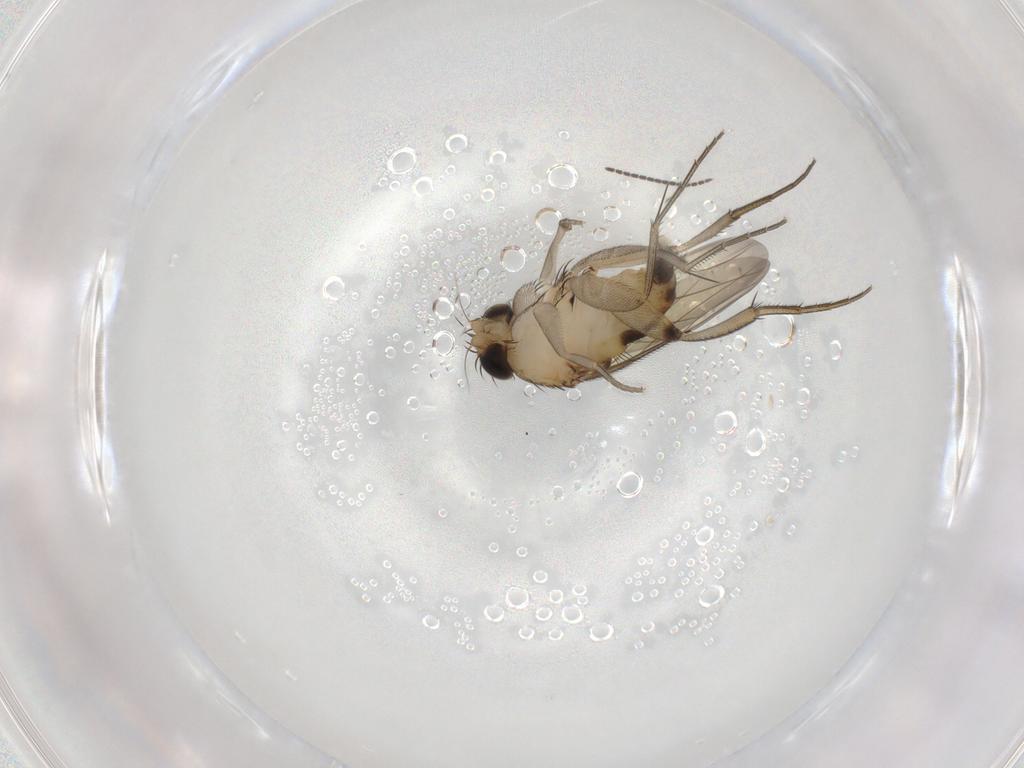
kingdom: Animalia
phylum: Arthropoda
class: Insecta
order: Diptera
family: Phoridae
